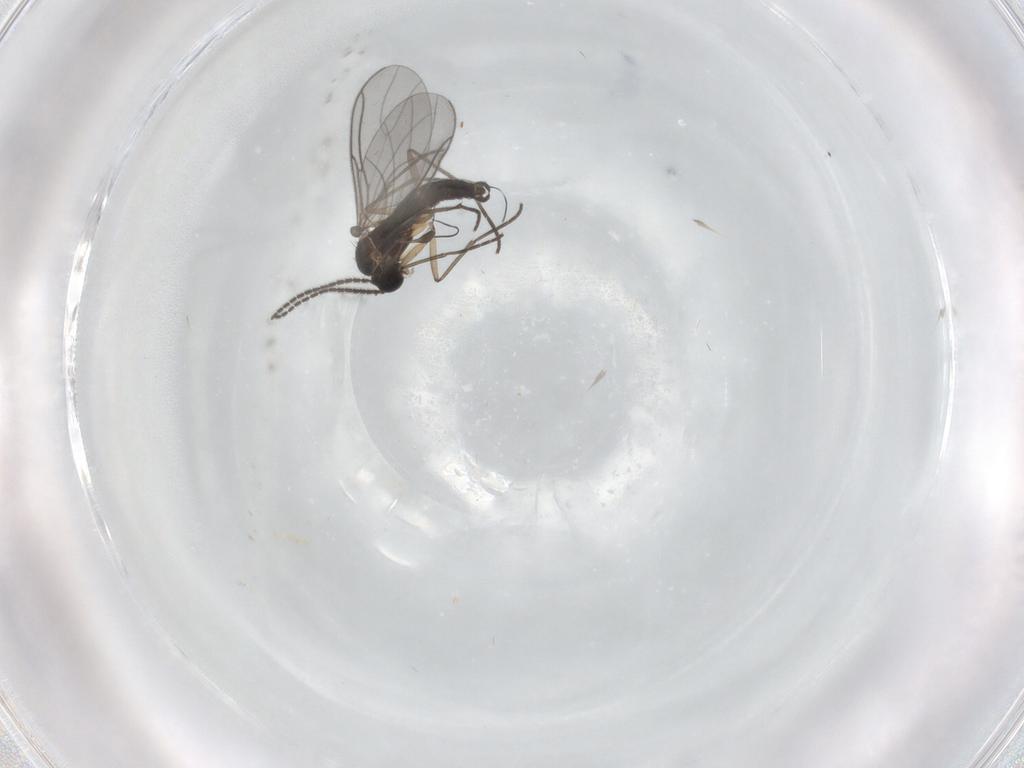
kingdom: Animalia
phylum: Arthropoda
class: Insecta
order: Diptera
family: Sciaridae
